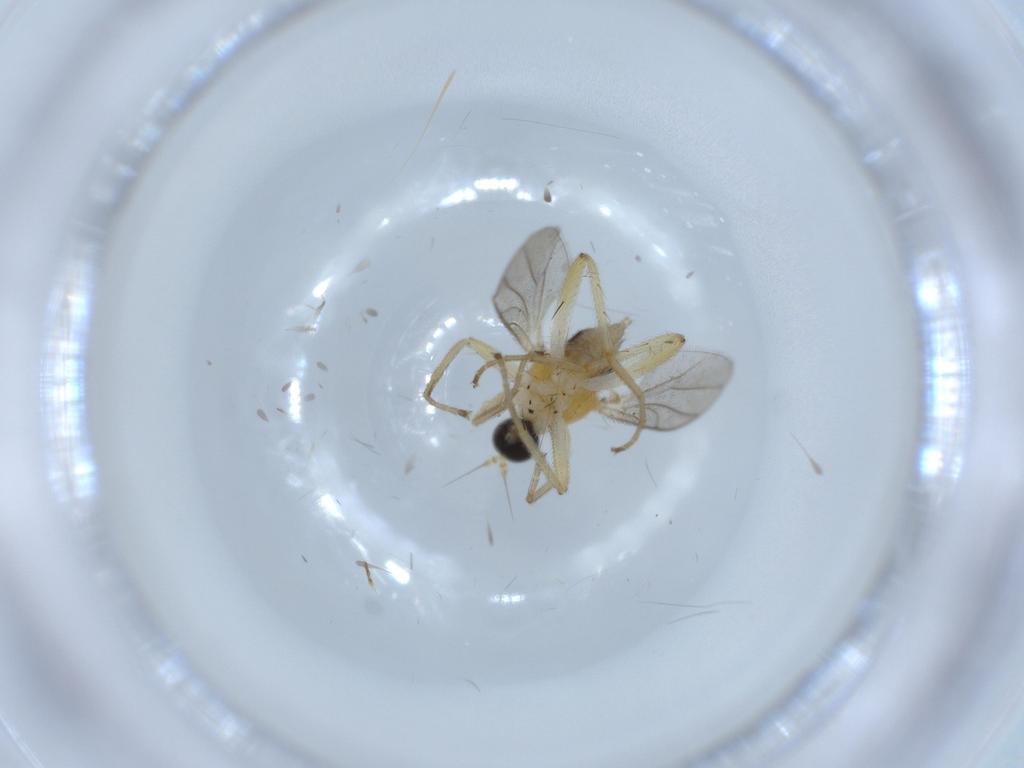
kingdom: Animalia
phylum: Arthropoda
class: Insecta
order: Diptera
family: Hybotidae
